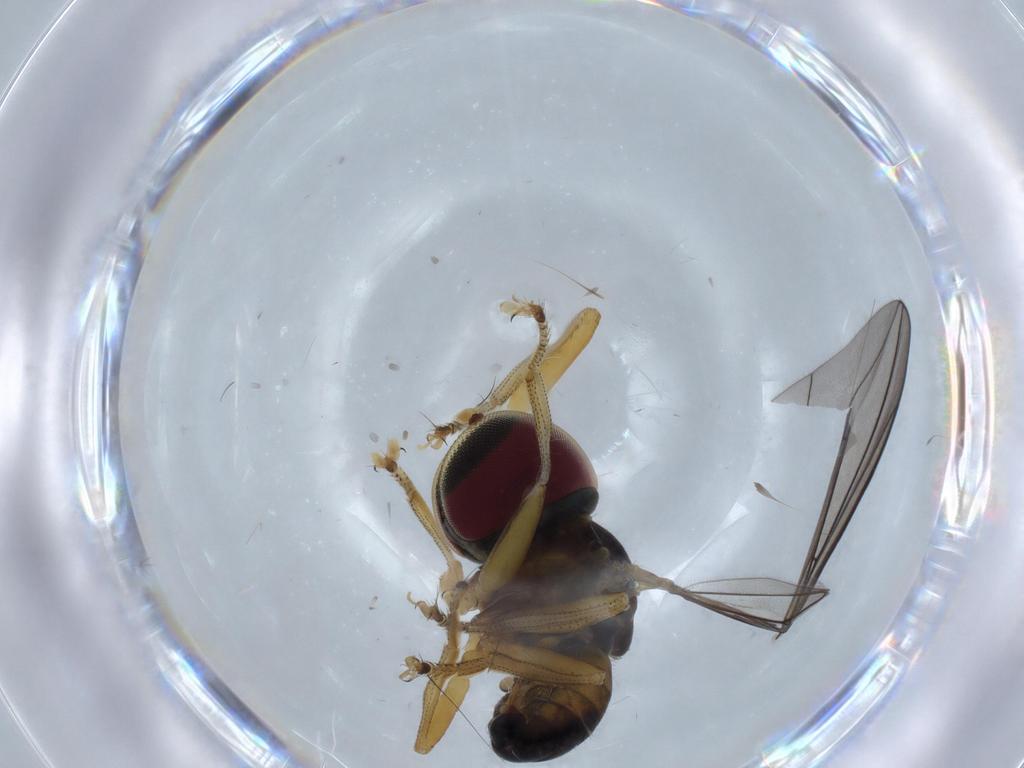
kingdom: Animalia
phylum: Arthropoda
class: Insecta
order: Diptera
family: Pipunculidae
